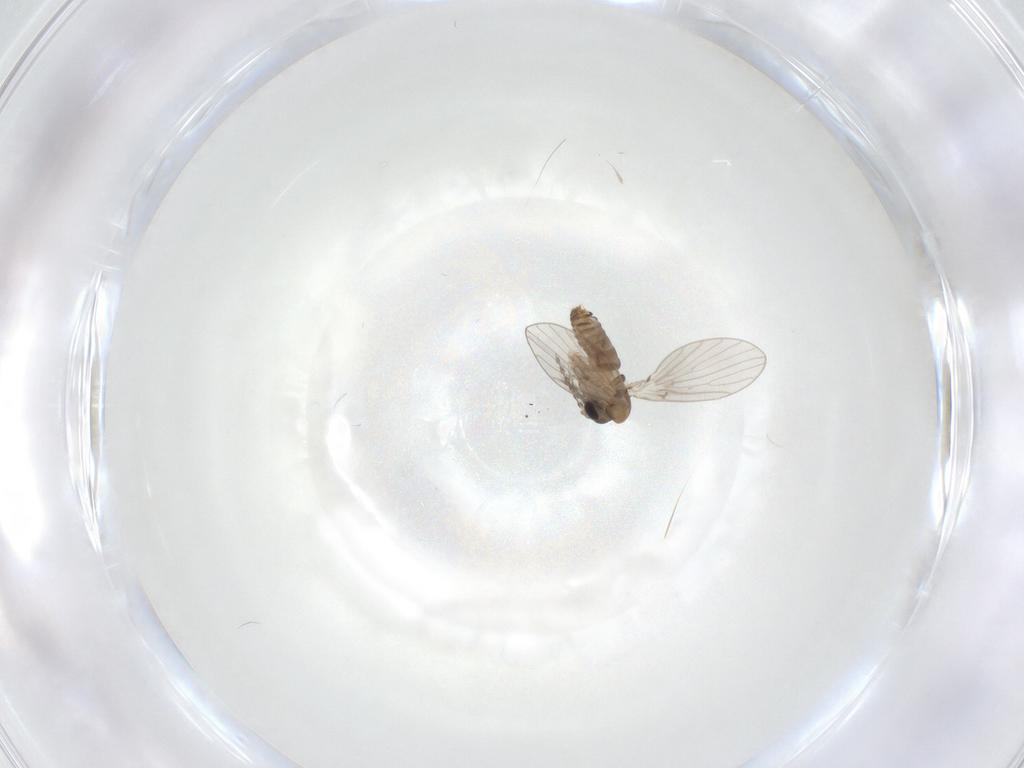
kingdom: Animalia
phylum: Arthropoda
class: Insecta
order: Diptera
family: Psychodidae
